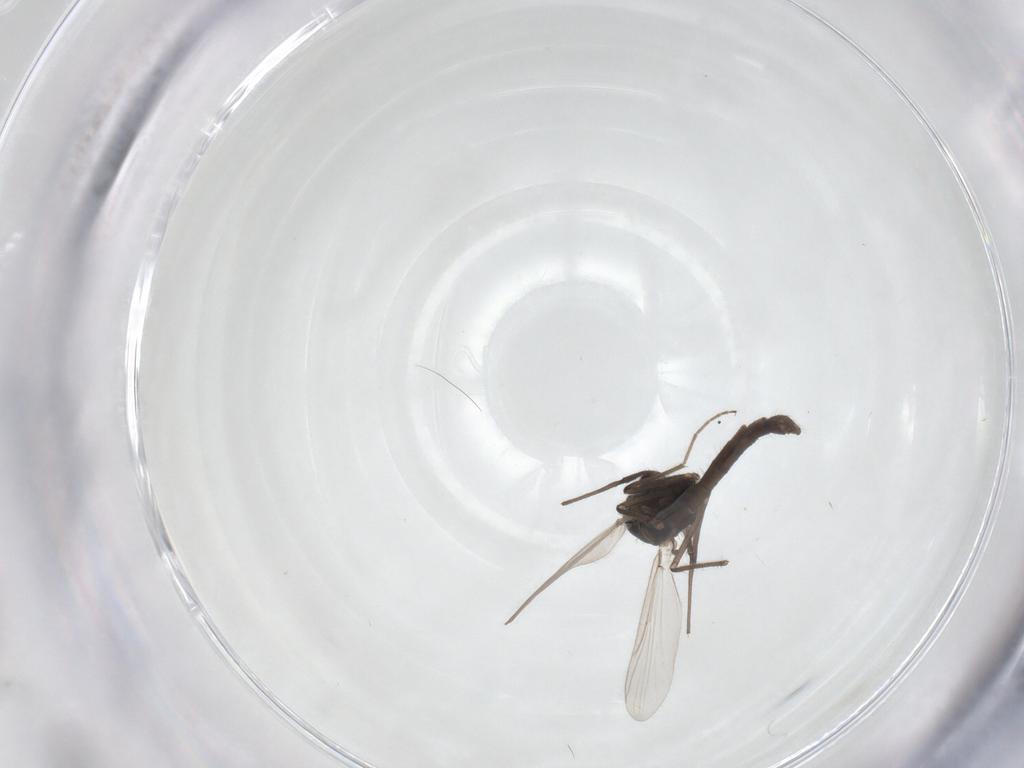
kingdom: Animalia
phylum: Arthropoda
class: Insecta
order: Diptera
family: Chironomidae
